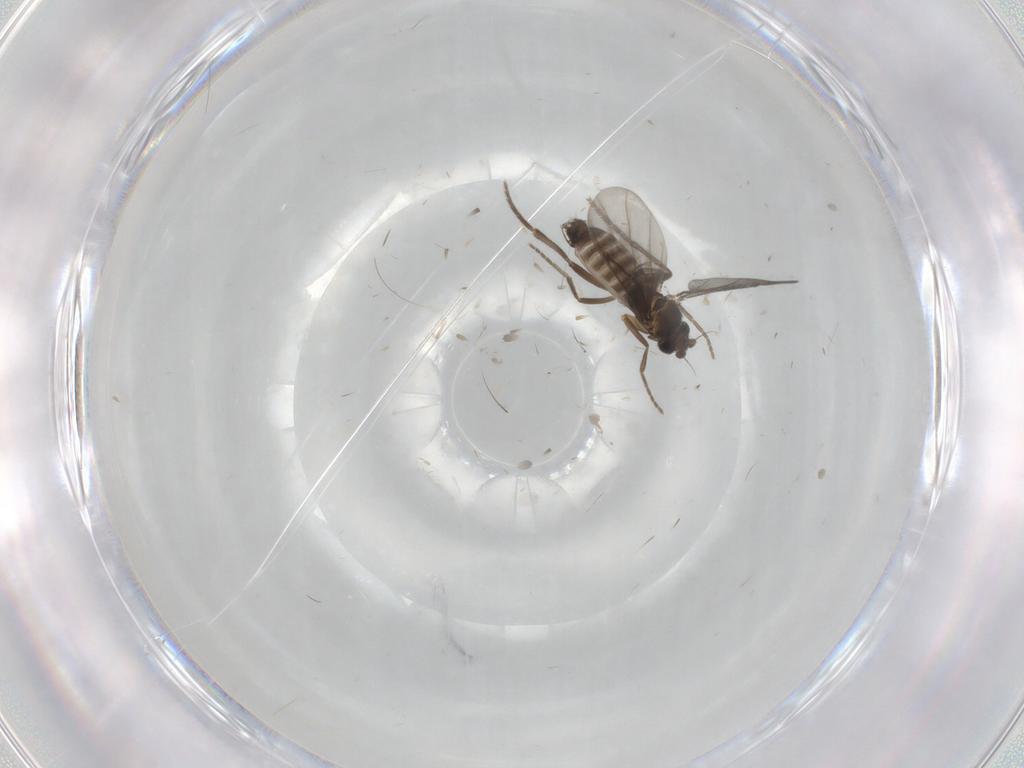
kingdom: Animalia
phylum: Arthropoda
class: Insecta
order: Diptera
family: Phoridae
